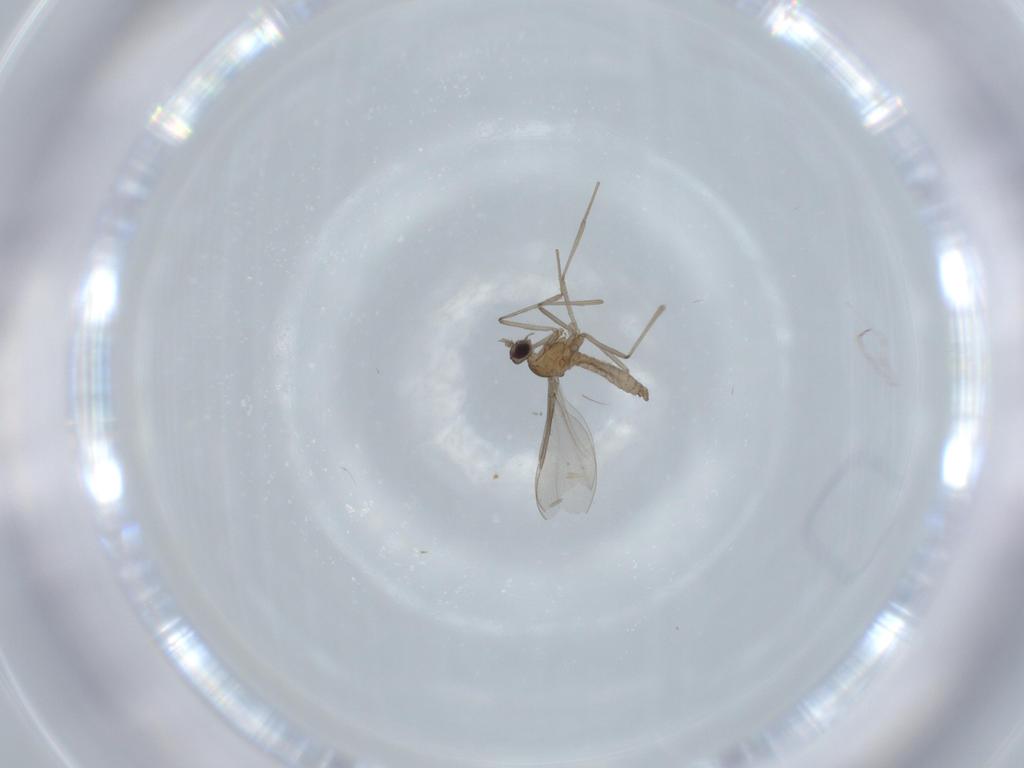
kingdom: Animalia
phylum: Arthropoda
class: Insecta
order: Diptera
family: Cecidomyiidae
